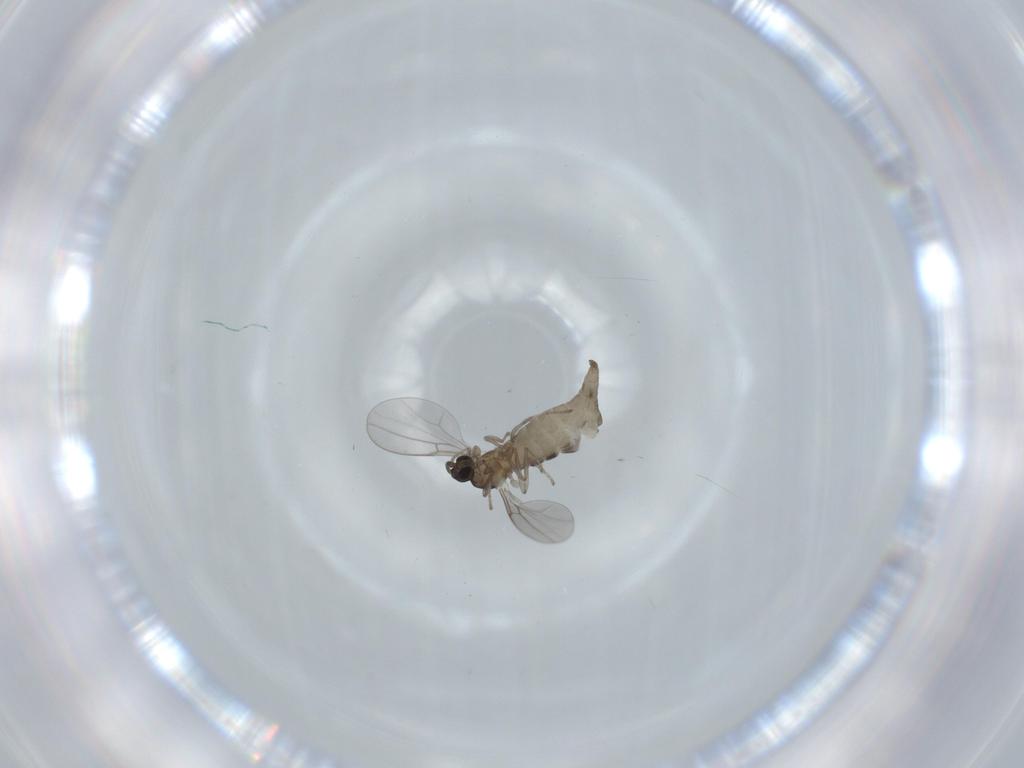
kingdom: Animalia
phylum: Arthropoda
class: Insecta
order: Diptera
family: Cecidomyiidae
